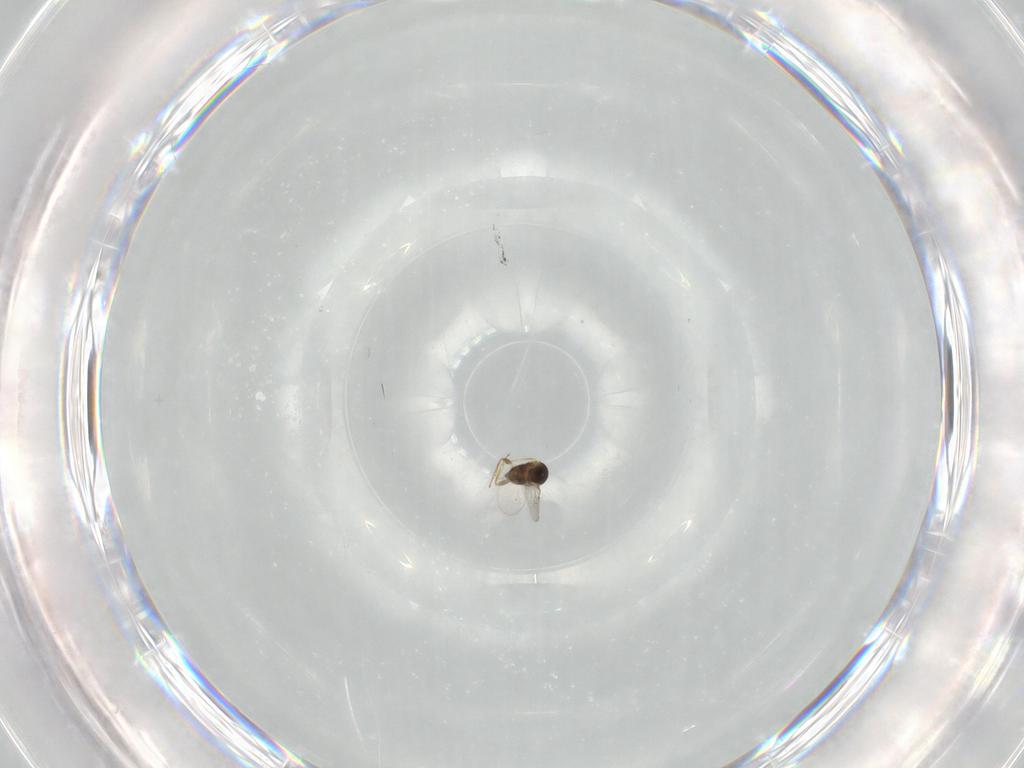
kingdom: Animalia
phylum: Arthropoda
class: Insecta
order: Hymenoptera
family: Encyrtidae
